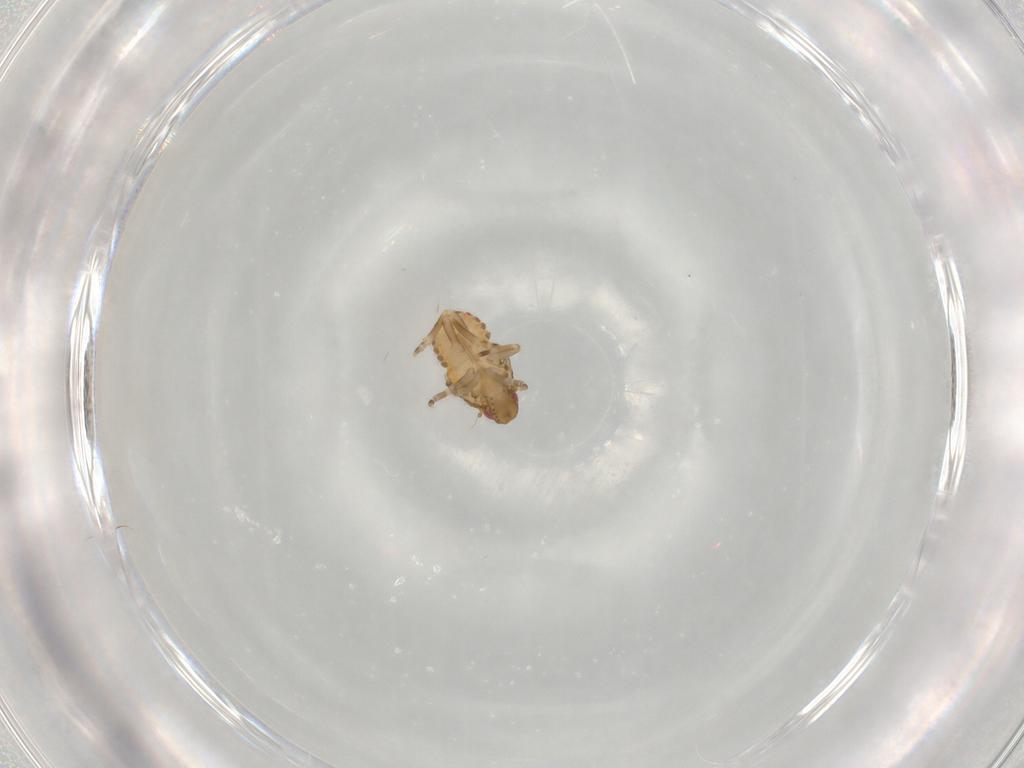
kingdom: Animalia
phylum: Arthropoda
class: Insecta
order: Hemiptera
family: Flatidae
